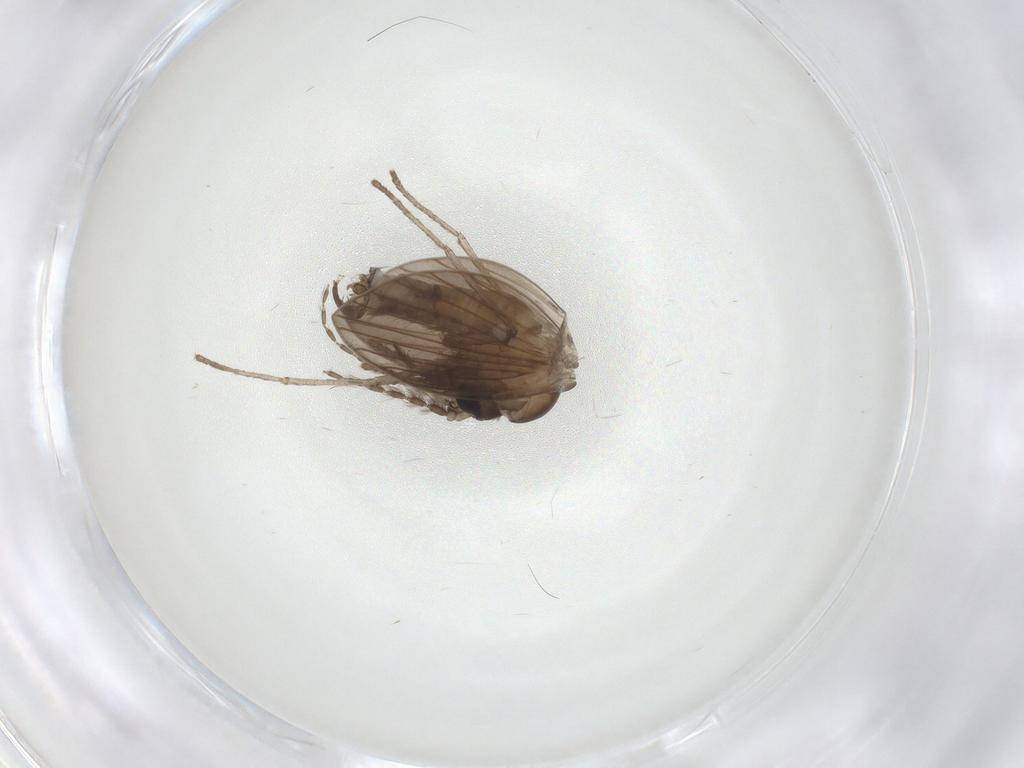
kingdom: Animalia
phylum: Arthropoda
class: Insecta
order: Diptera
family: Psychodidae
